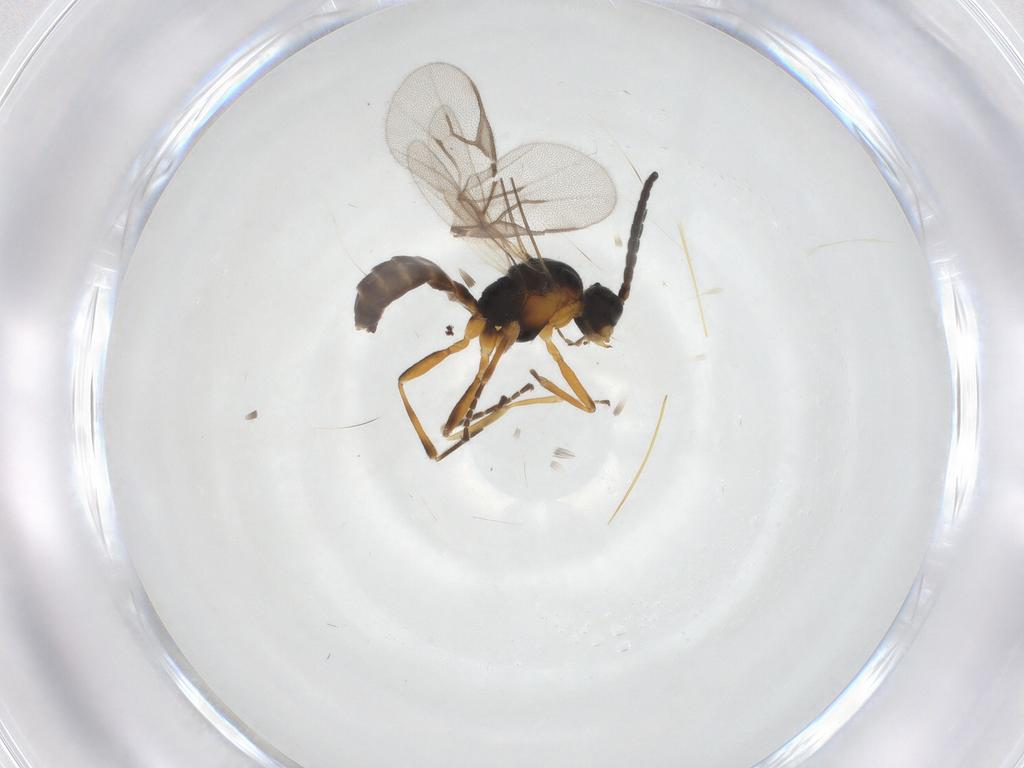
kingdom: Animalia
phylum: Arthropoda
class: Insecta
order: Hymenoptera
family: Braconidae
